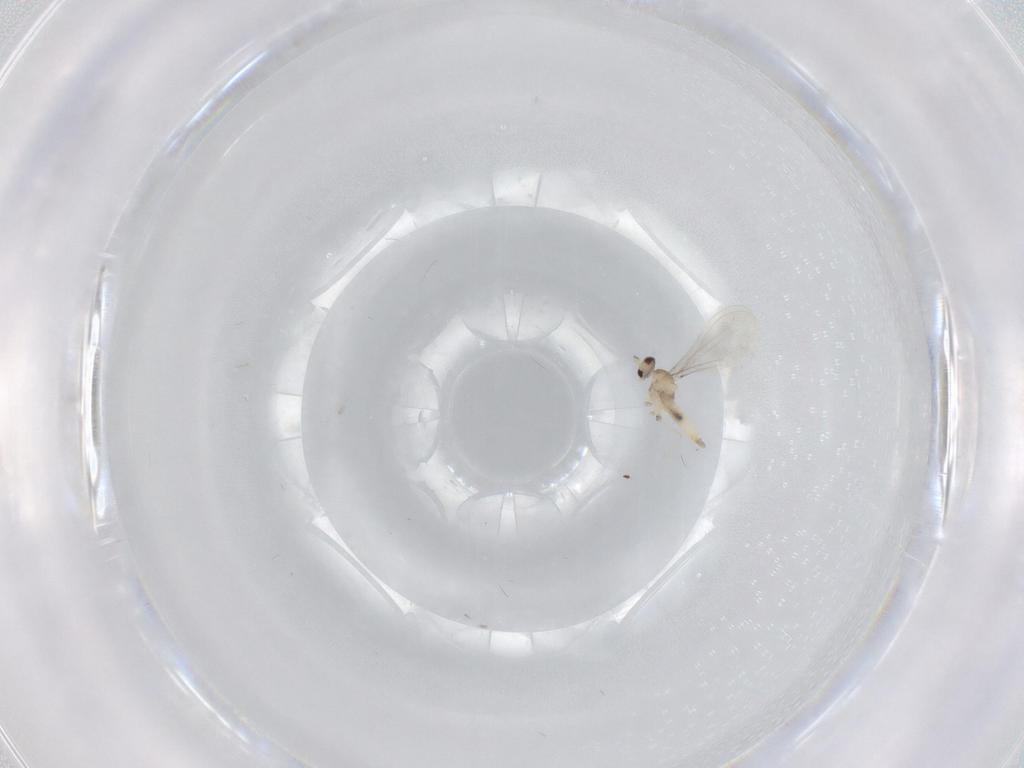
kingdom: Animalia
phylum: Arthropoda
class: Insecta
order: Diptera
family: Cecidomyiidae
